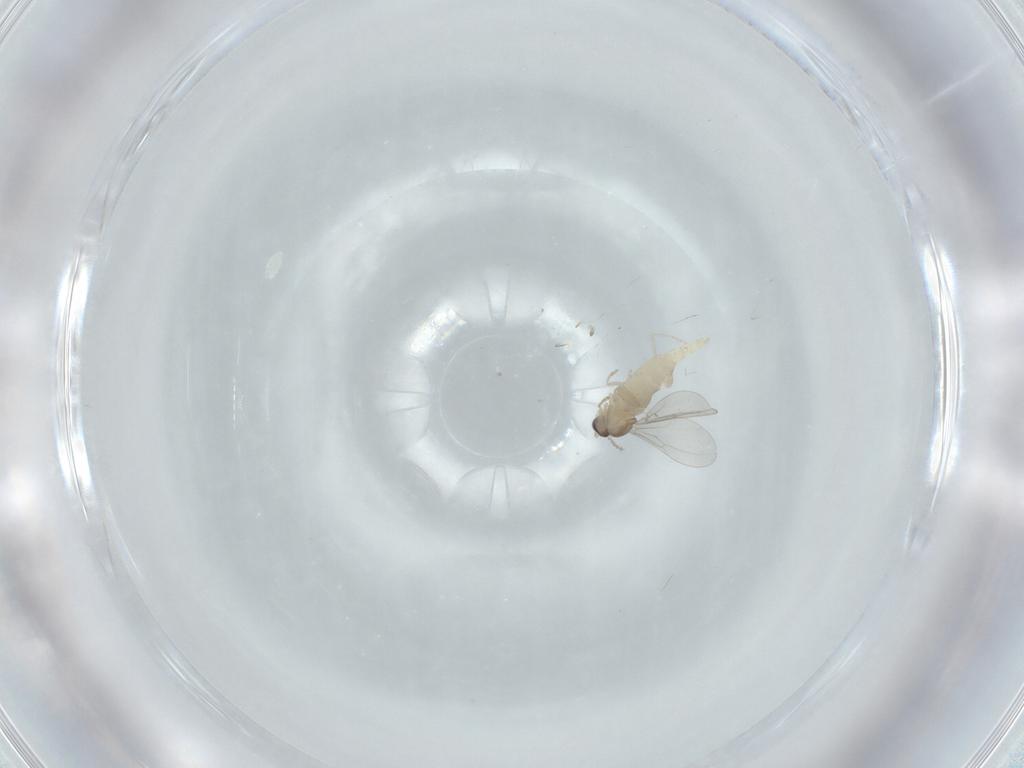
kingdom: Animalia
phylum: Arthropoda
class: Insecta
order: Diptera
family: Cecidomyiidae
